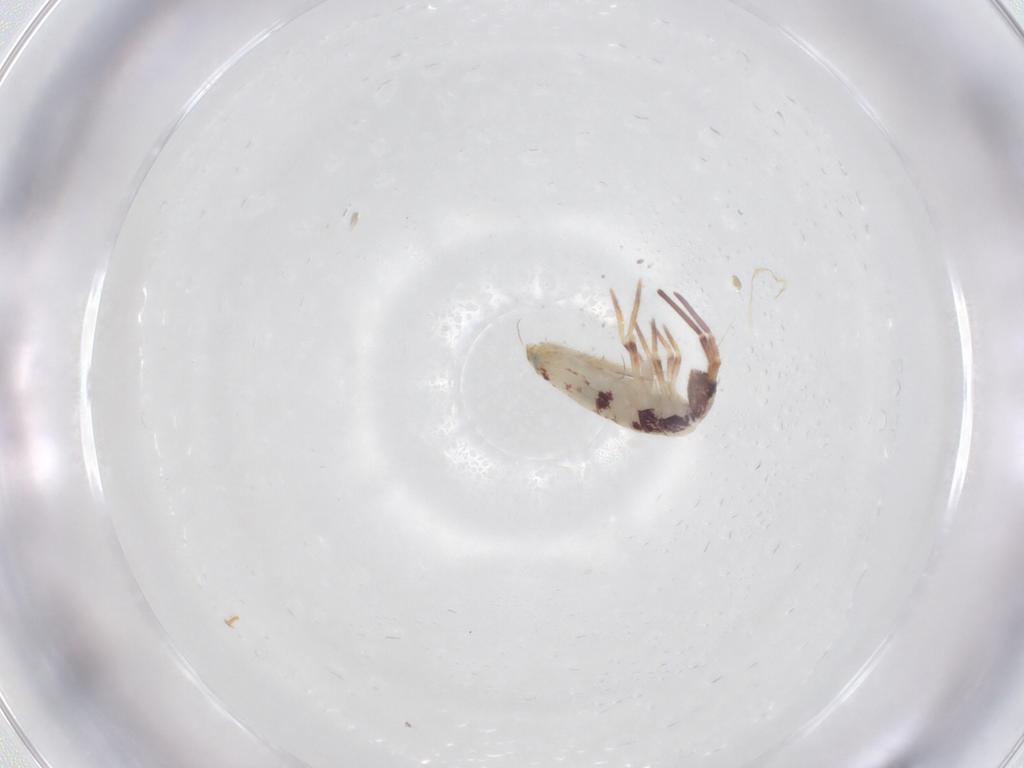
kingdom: Animalia
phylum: Arthropoda
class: Collembola
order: Entomobryomorpha
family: Entomobryidae
